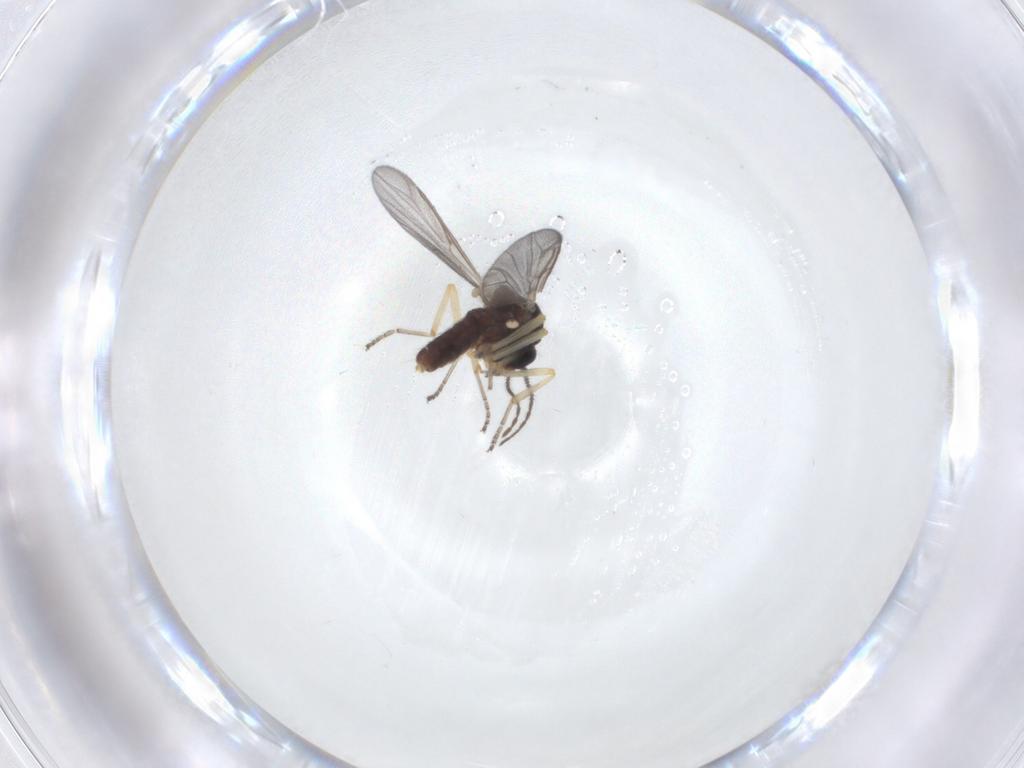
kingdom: Animalia
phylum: Arthropoda
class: Insecta
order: Diptera
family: Ceratopogonidae
